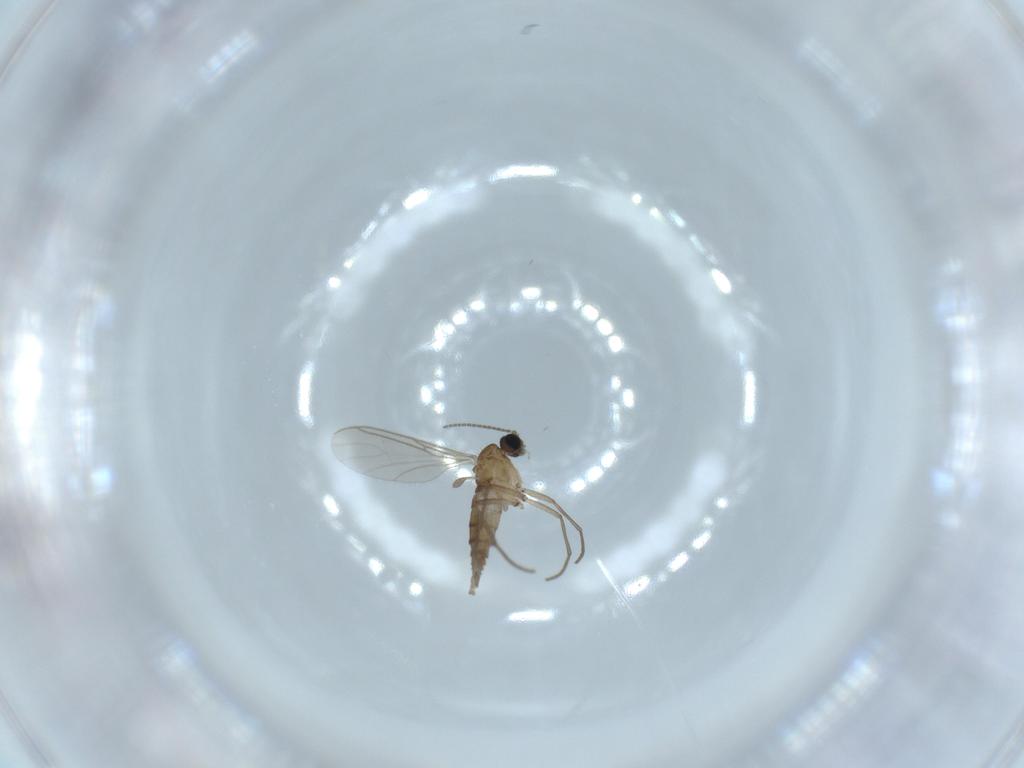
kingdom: Animalia
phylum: Arthropoda
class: Insecta
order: Diptera
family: Sciaridae
